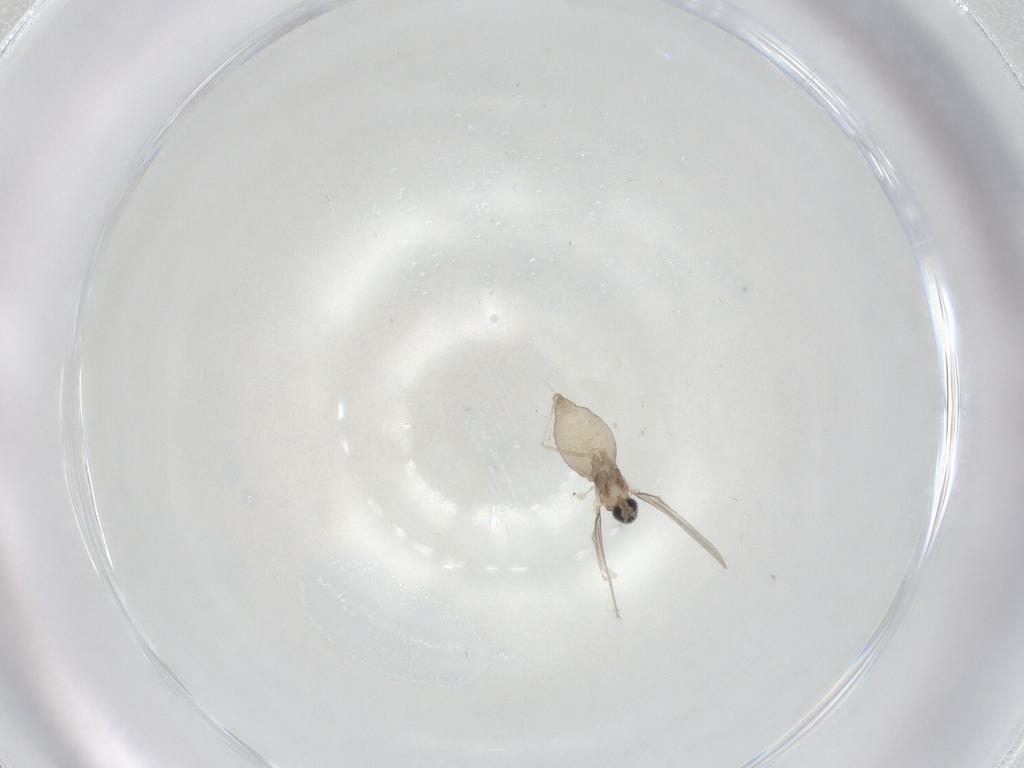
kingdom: Animalia
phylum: Arthropoda
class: Insecta
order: Diptera
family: Cecidomyiidae
